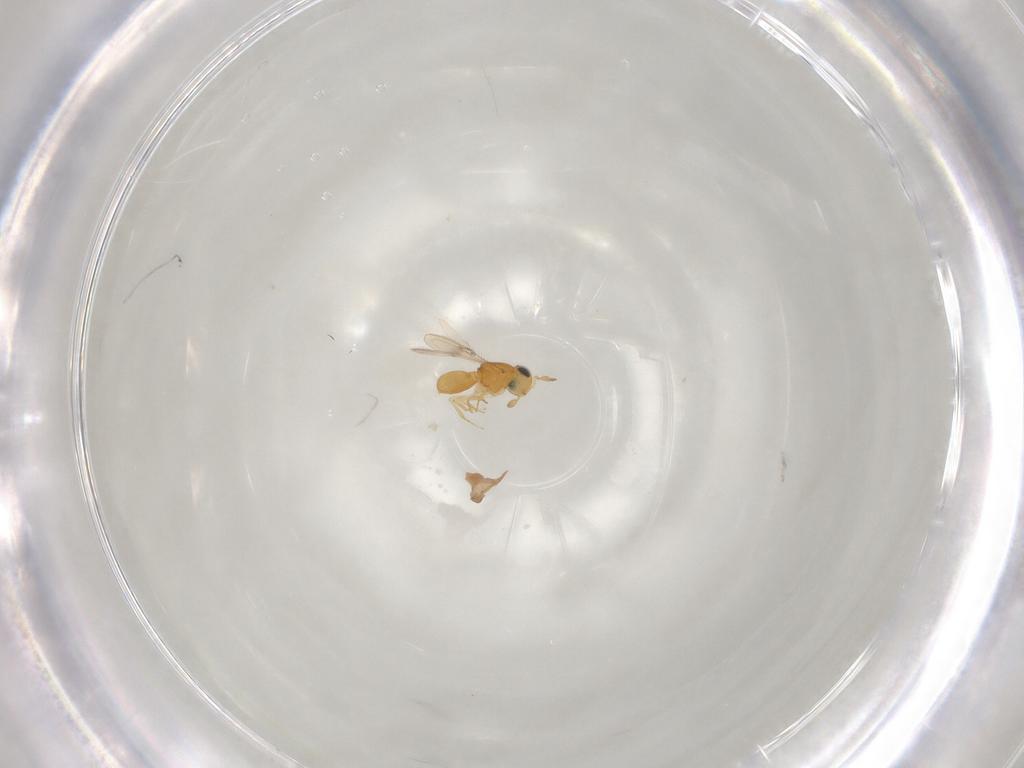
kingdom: Animalia
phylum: Arthropoda
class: Insecta
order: Hymenoptera
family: Scelionidae
